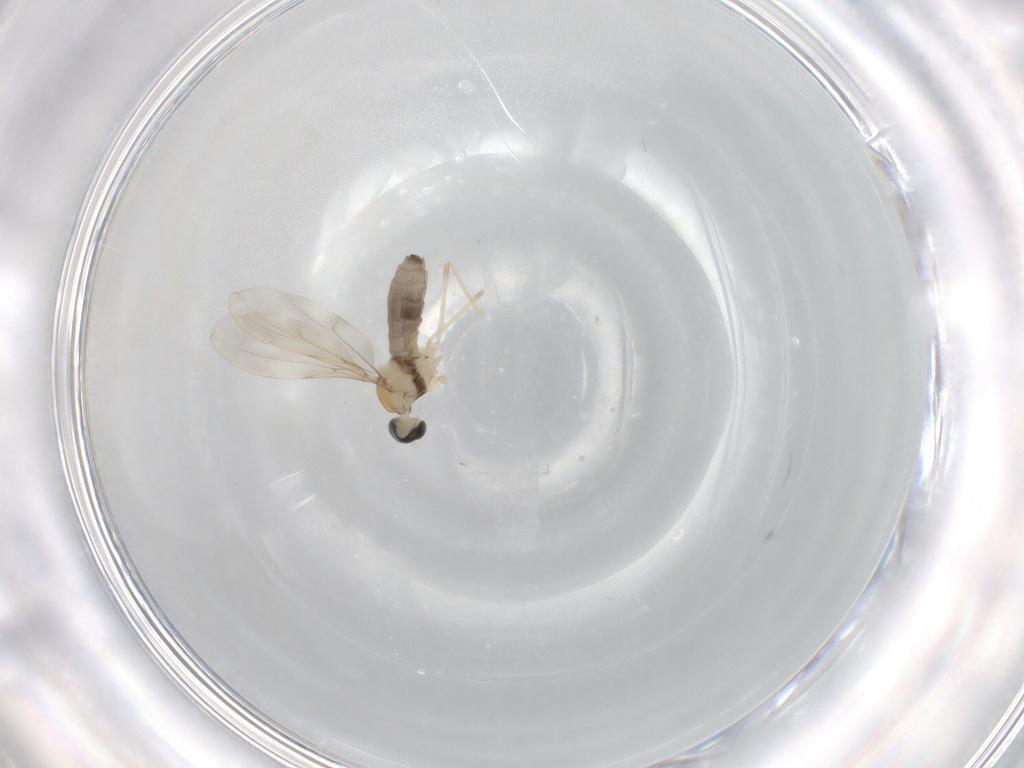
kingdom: Animalia
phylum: Arthropoda
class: Insecta
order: Diptera
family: Cecidomyiidae
